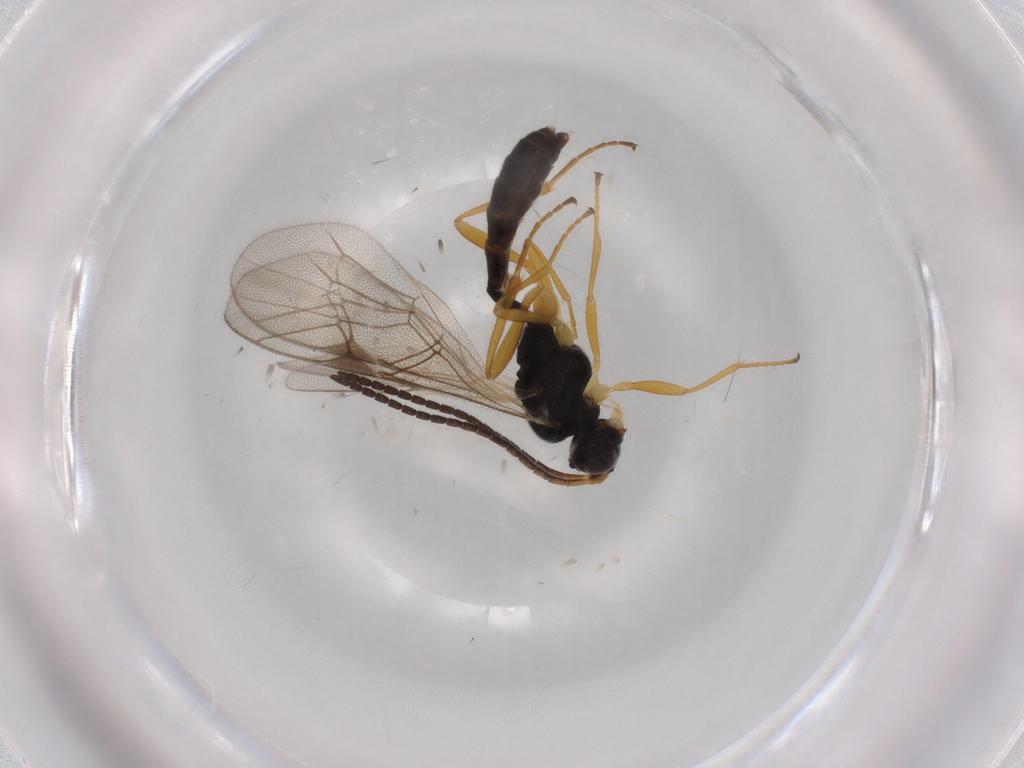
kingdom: Animalia
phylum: Arthropoda
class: Insecta
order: Hymenoptera
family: Ichneumonidae
